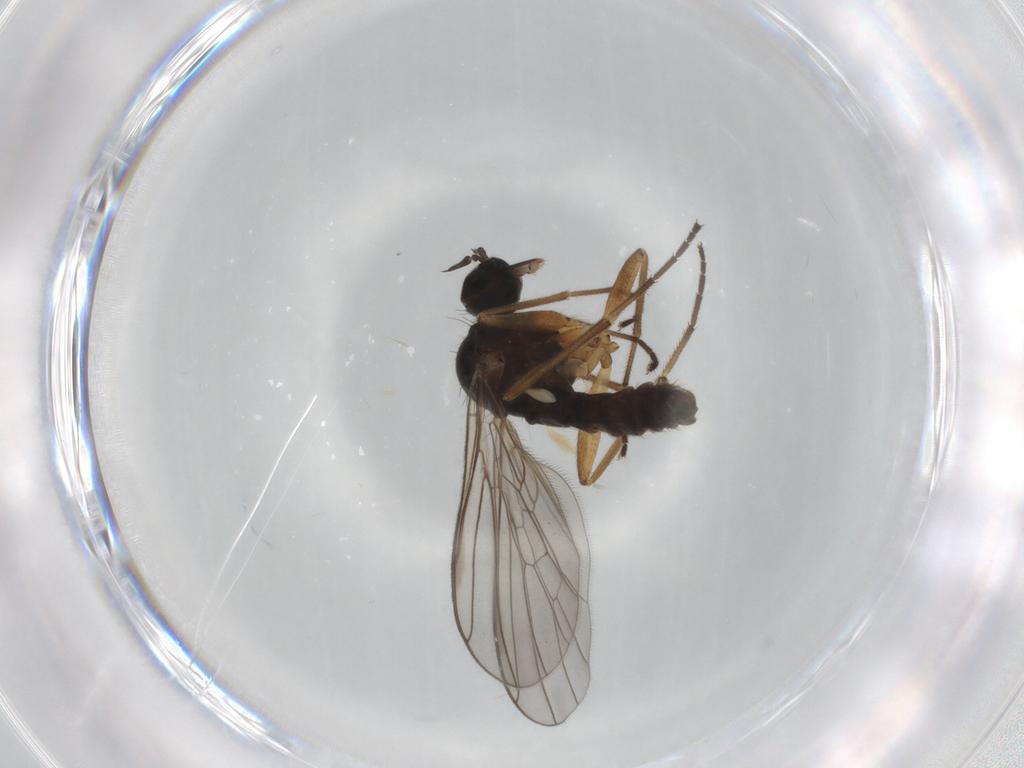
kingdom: Animalia
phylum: Arthropoda
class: Insecta
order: Diptera
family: Empididae
